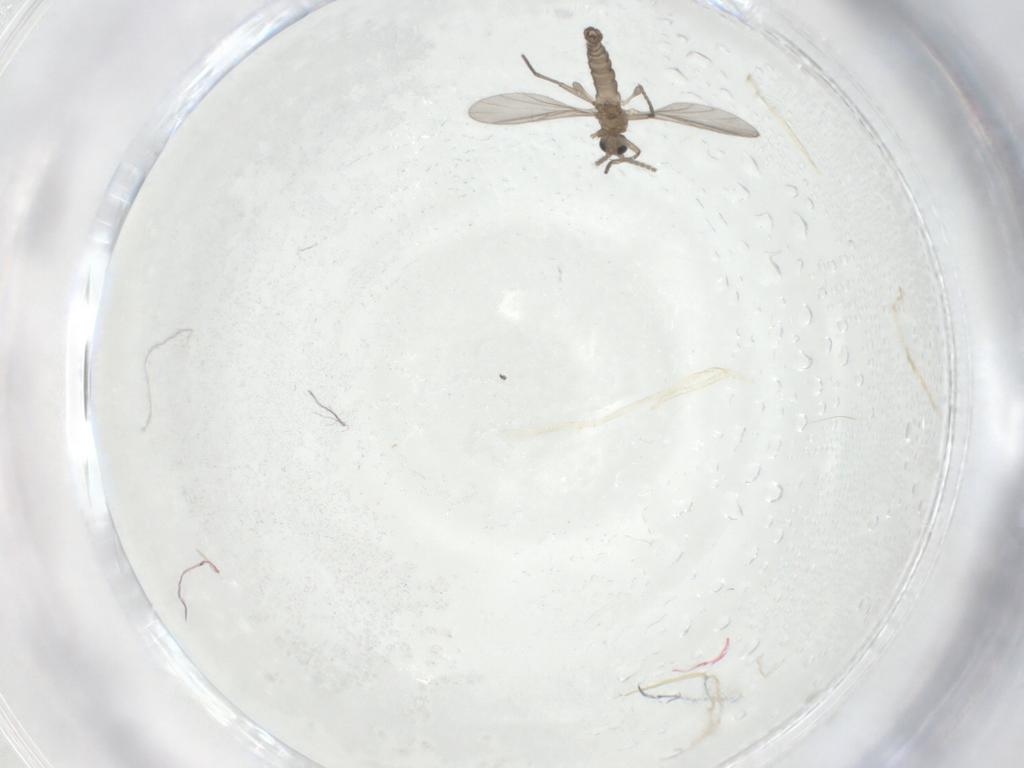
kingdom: Animalia
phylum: Arthropoda
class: Insecta
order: Diptera
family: Sciaridae
